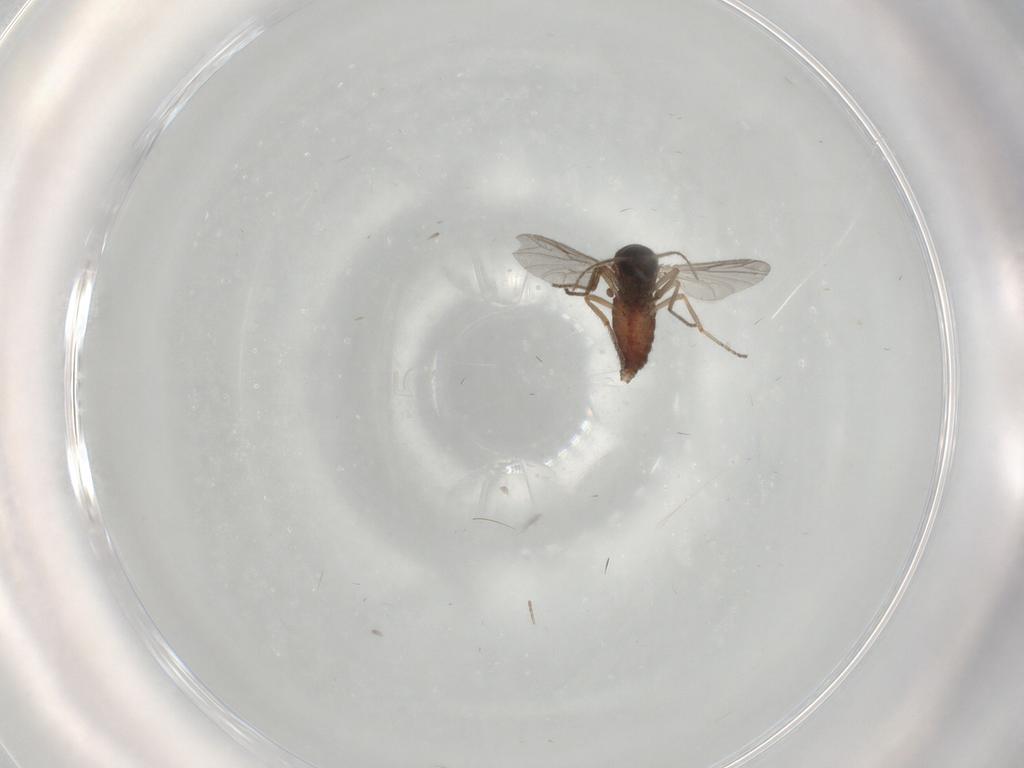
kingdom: Animalia
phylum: Arthropoda
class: Insecta
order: Diptera
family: Ceratopogonidae
